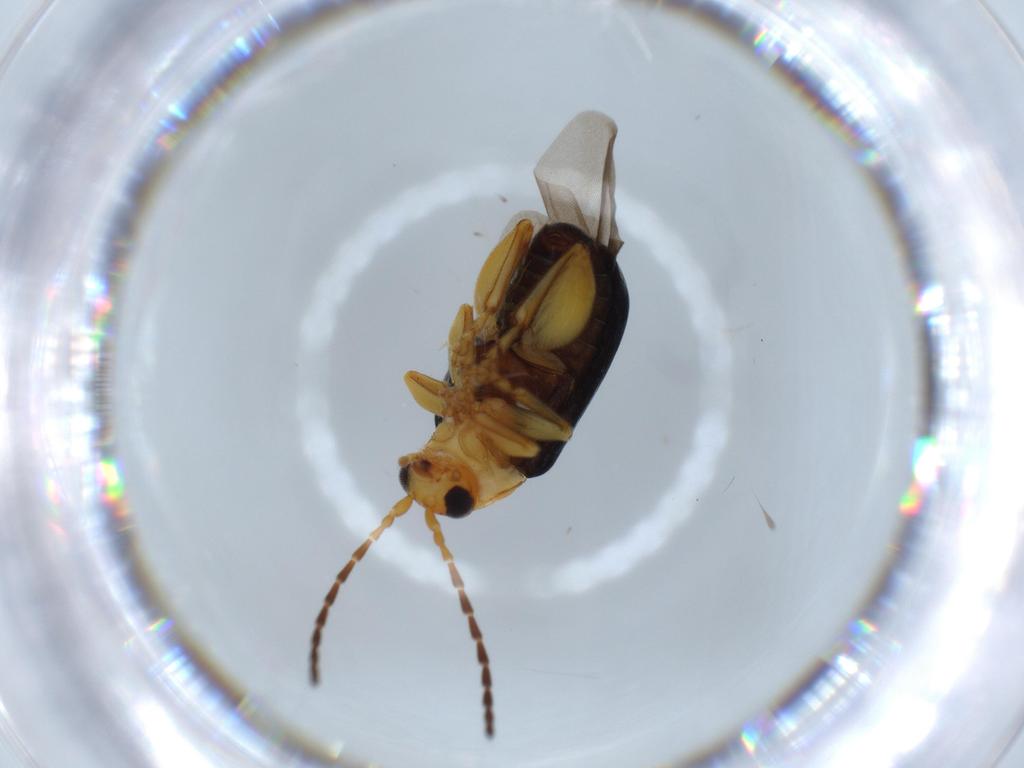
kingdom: Animalia
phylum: Arthropoda
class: Insecta
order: Coleoptera
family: Chrysomelidae
